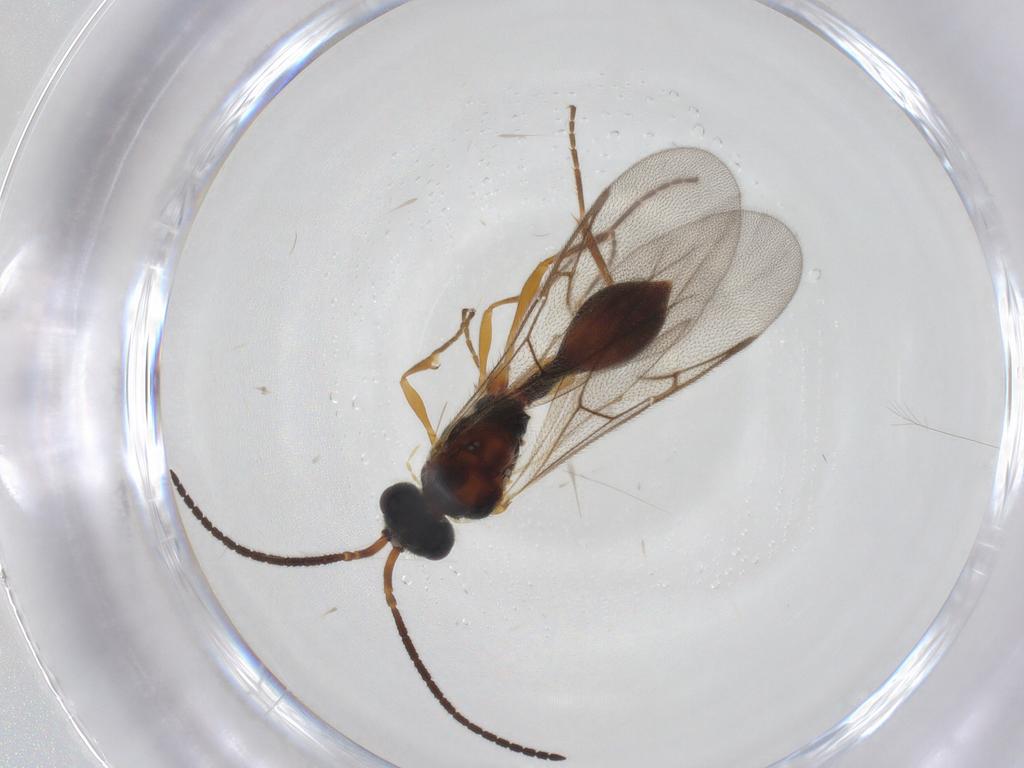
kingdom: Animalia
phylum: Arthropoda
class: Insecta
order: Hymenoptera
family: Diapriidae
